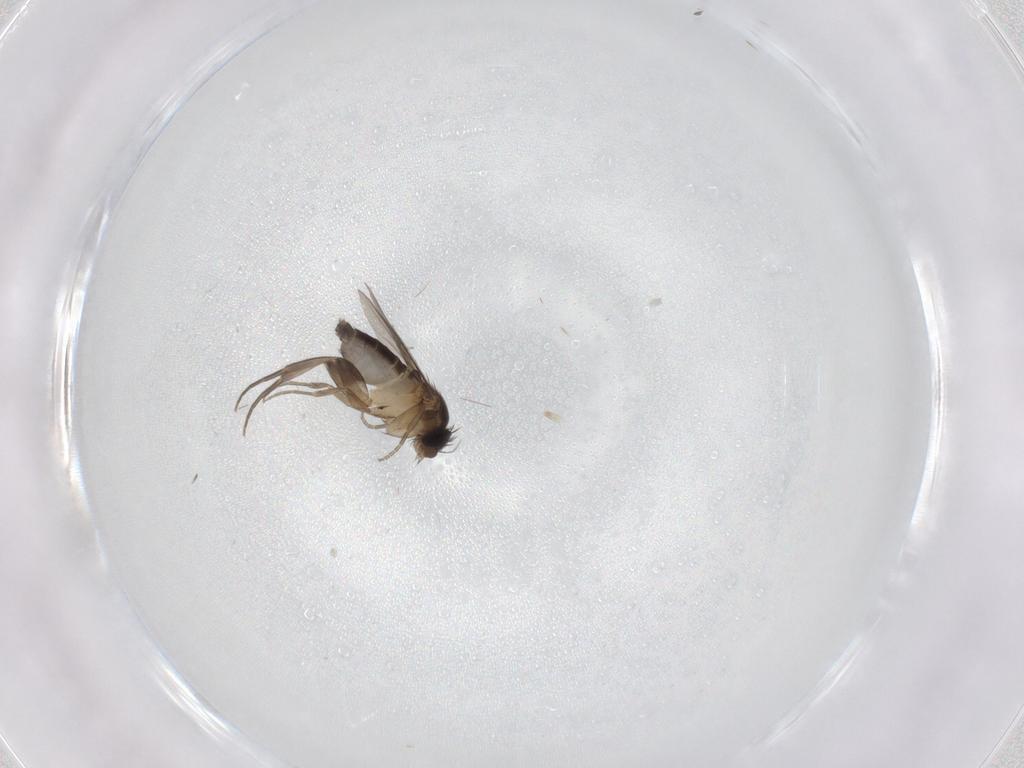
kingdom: Animalia
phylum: Arthropoda
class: Insecta
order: Diptera
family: Phoridae
